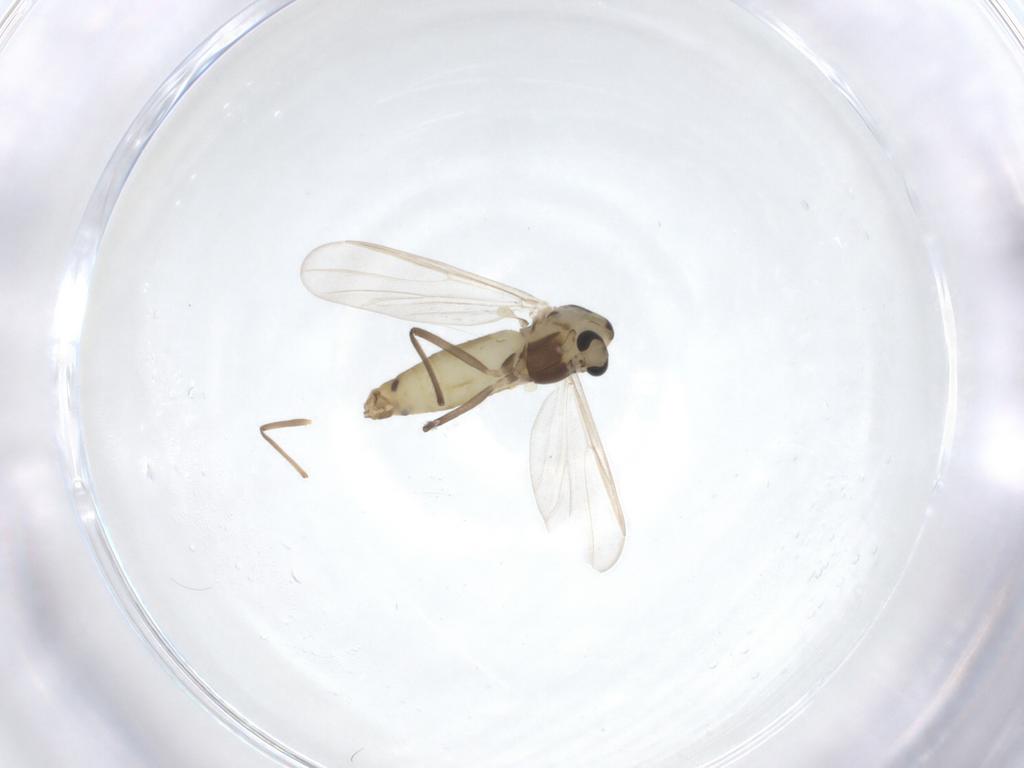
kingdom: Animalia
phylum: Arthropoda
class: Insecta
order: Diptera
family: Chironomidae
